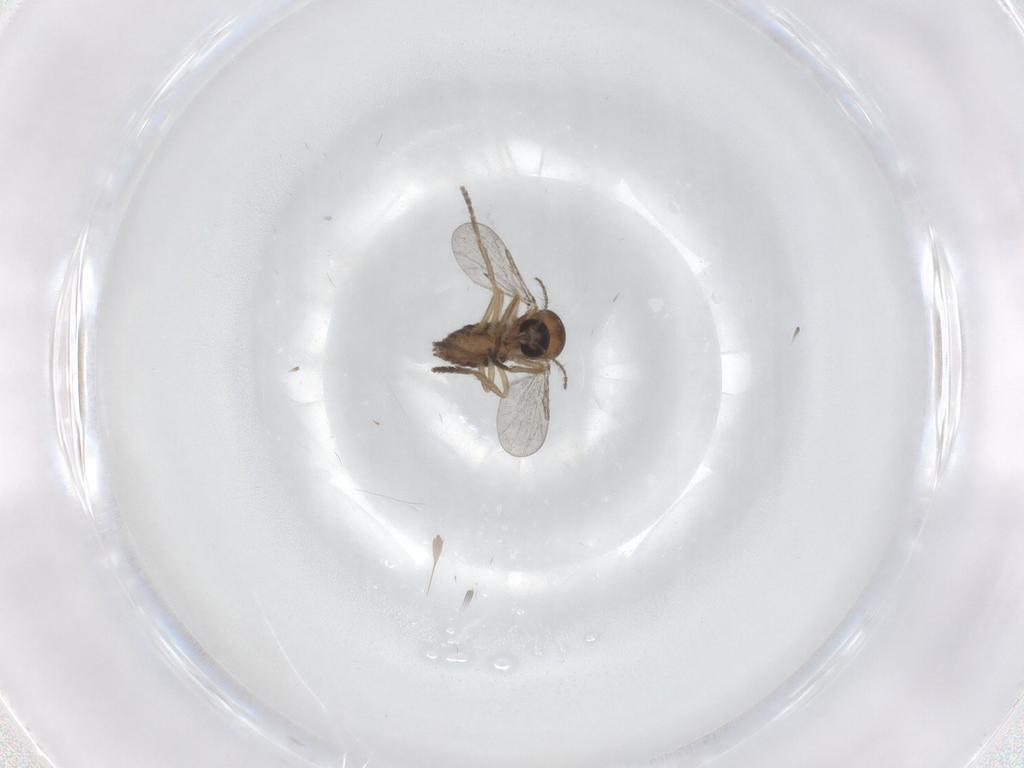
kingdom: Animalia
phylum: Arthropoda
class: Insecta
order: Diptera
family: Ceratopogonidae
